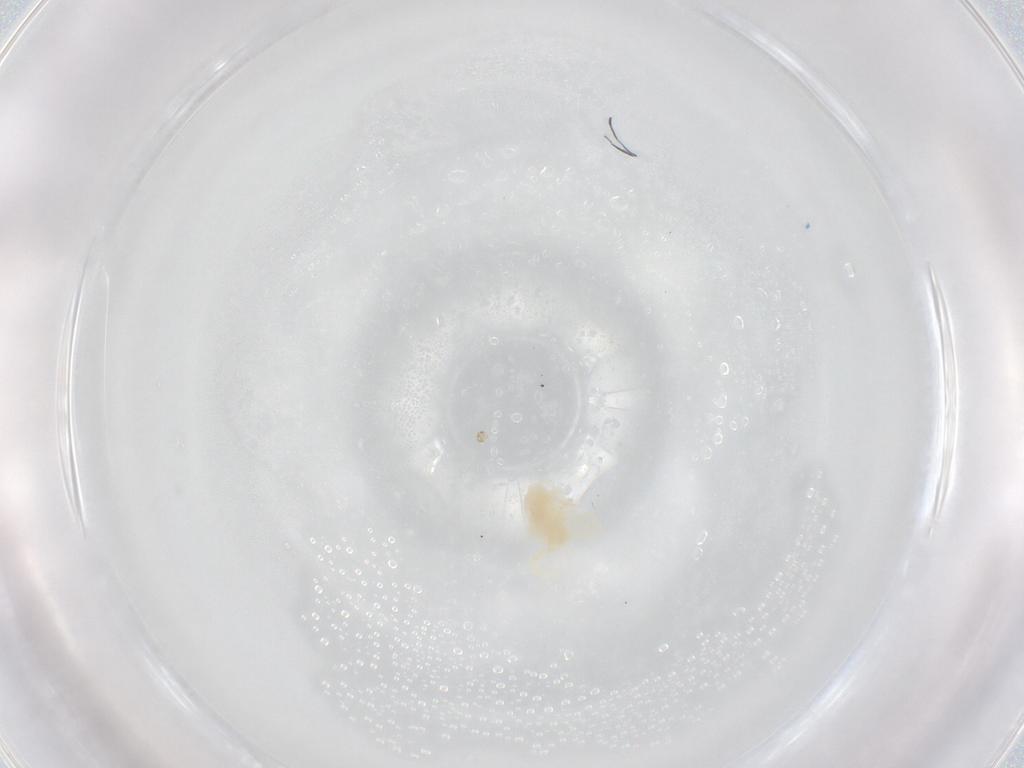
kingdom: Animalia
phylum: Arthropoda
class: Arachnida
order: Trombidiformes
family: Rhagidiidae
